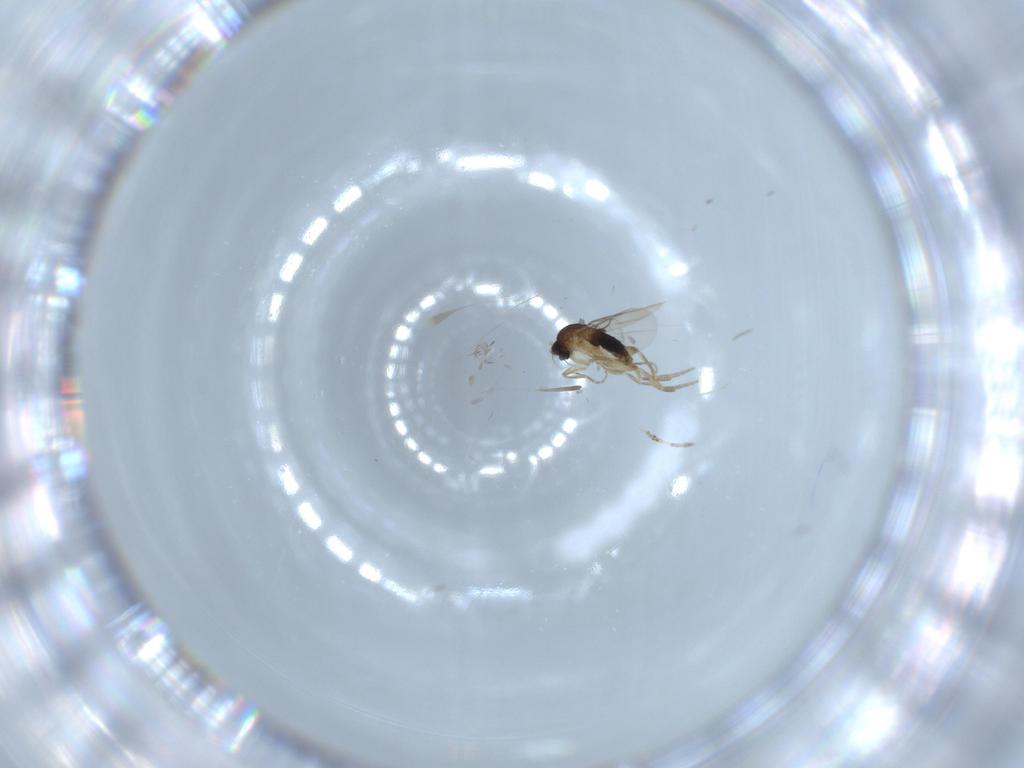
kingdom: Animalia
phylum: Arthropoda
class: Insecta
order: Diptera
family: Phoridae
